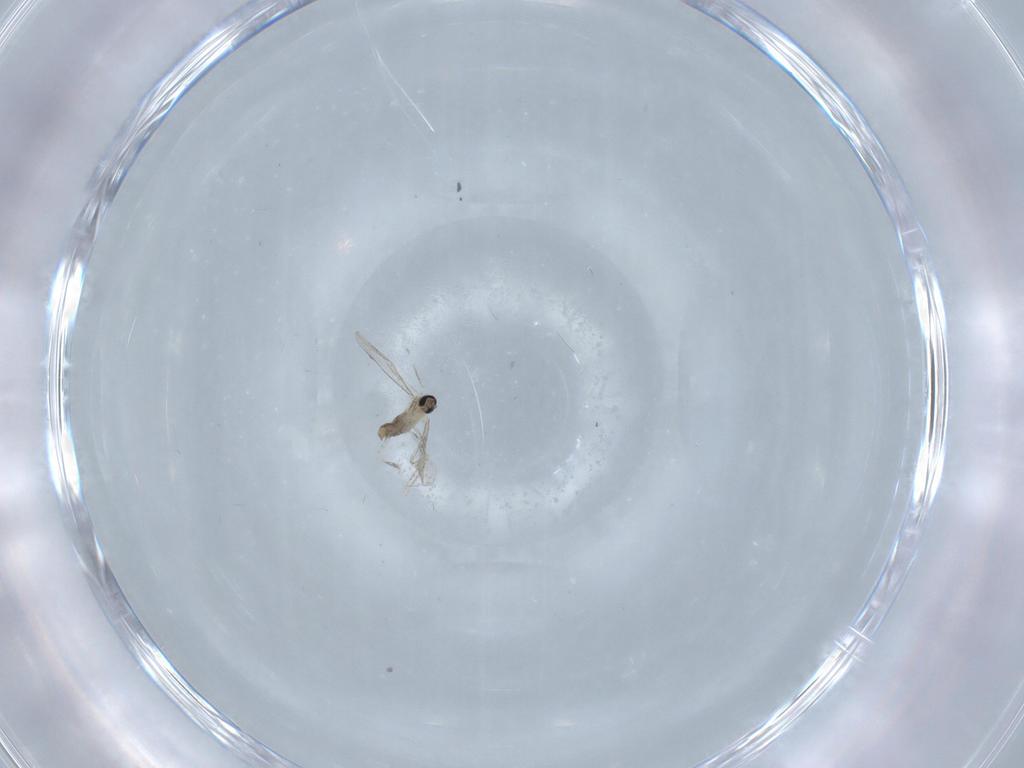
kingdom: Animalia
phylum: Arthropoda
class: Insecta
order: Diptera
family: Ceratopogonidae
